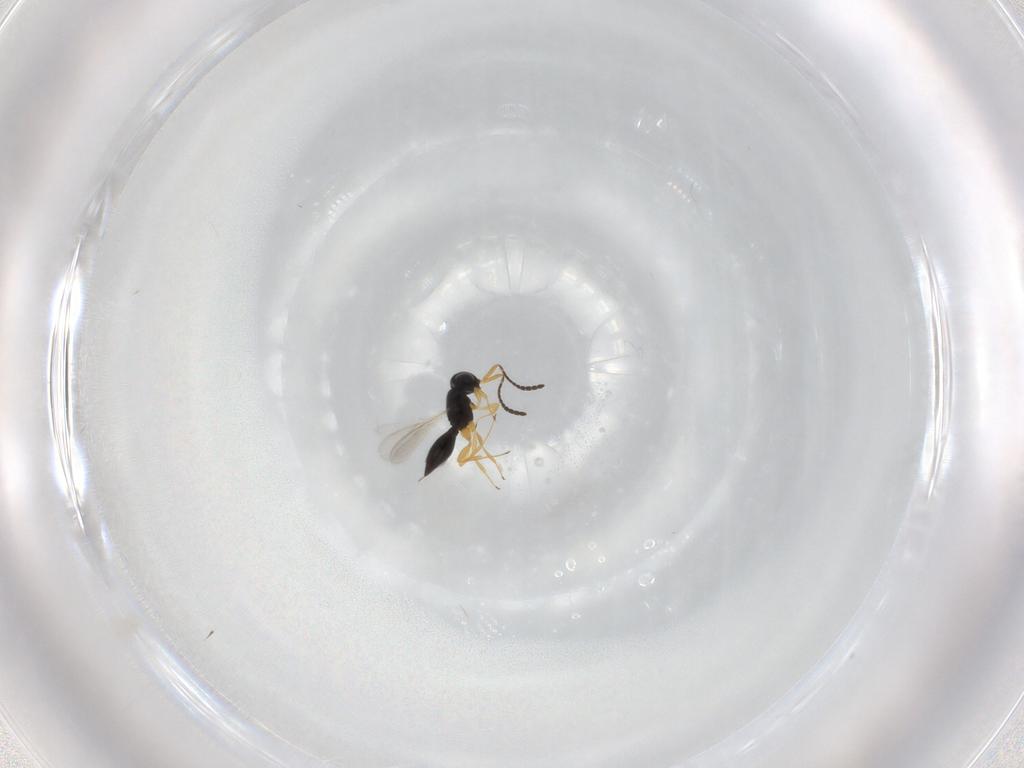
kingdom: Animalia
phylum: Arthropoda
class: Insecta
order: Hymenoptera
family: Scelionidae
